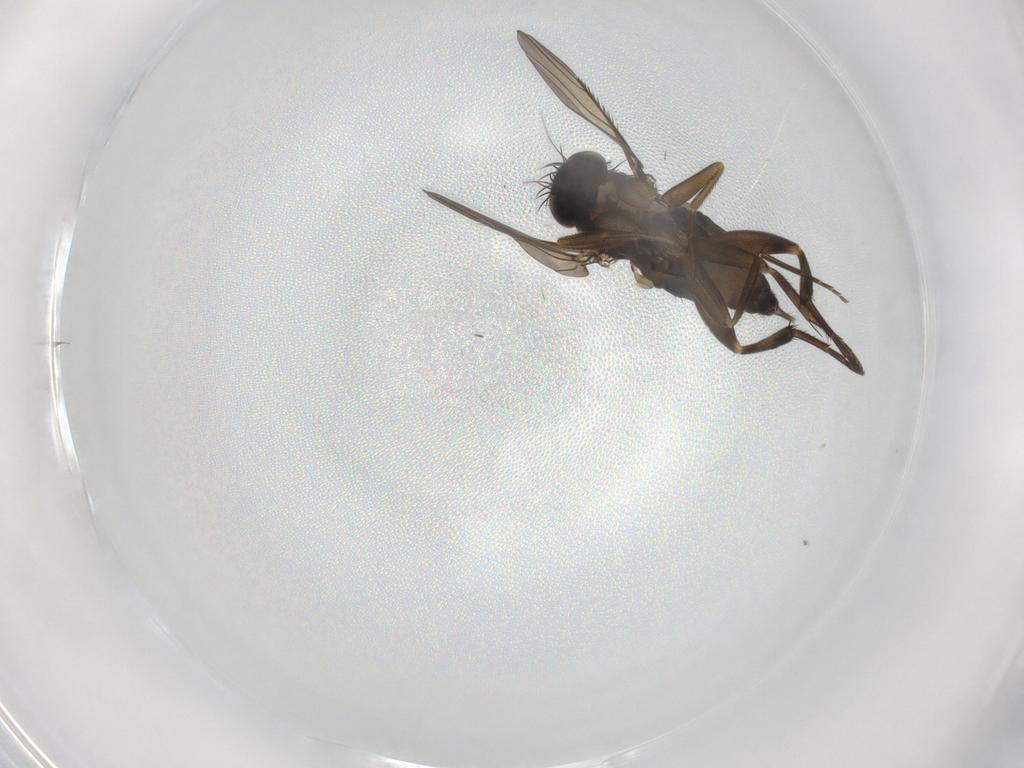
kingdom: Animalia
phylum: Arthropoda
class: Insecta
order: Diptera
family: Phoridae
